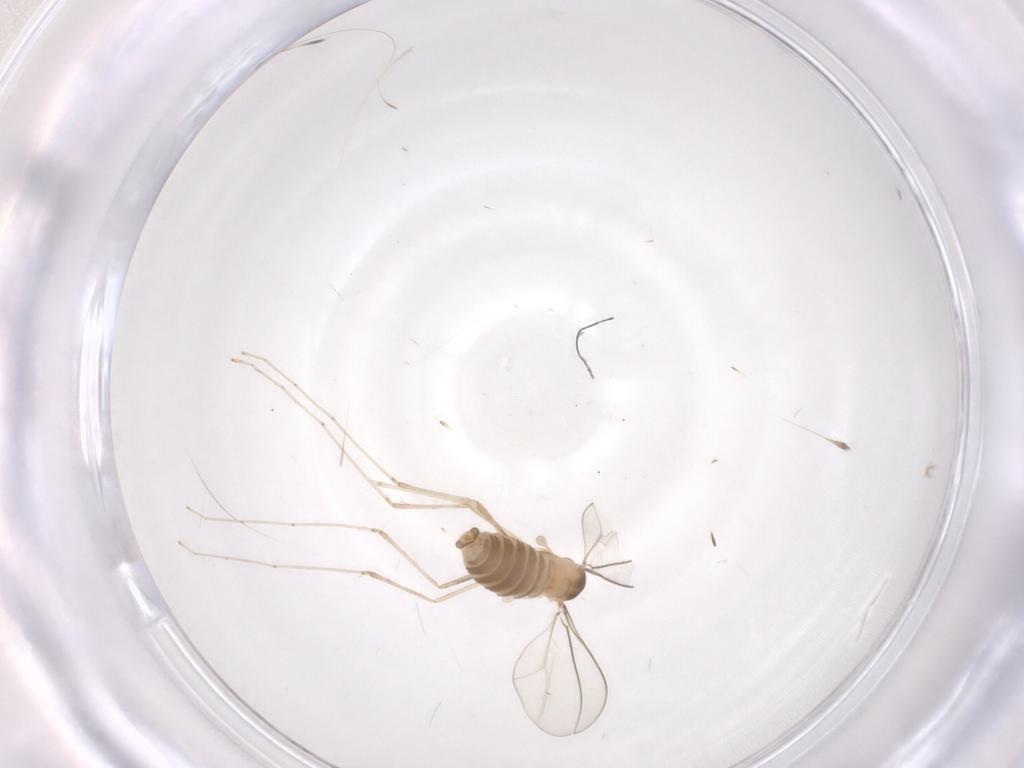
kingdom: Animalia
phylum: Arthropoda
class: Insecta
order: Diptera
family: Cecidomyiidae
